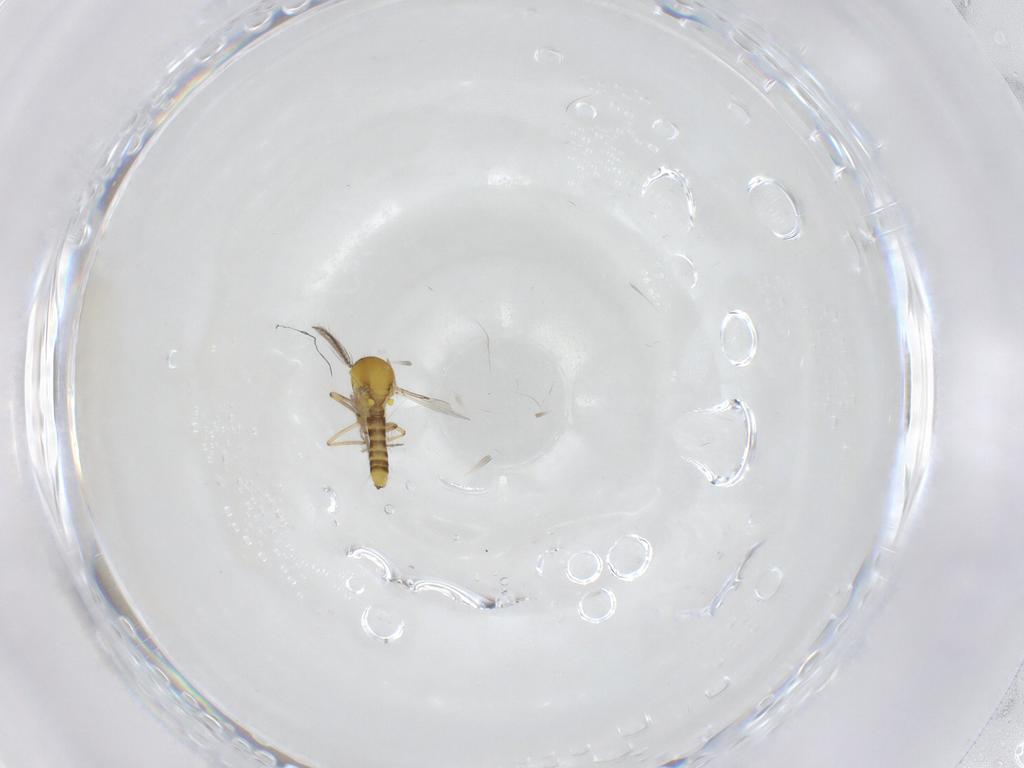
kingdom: Animalia
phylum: Arthropoda
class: Insecta
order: Diptera
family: Ceratopogonidae
